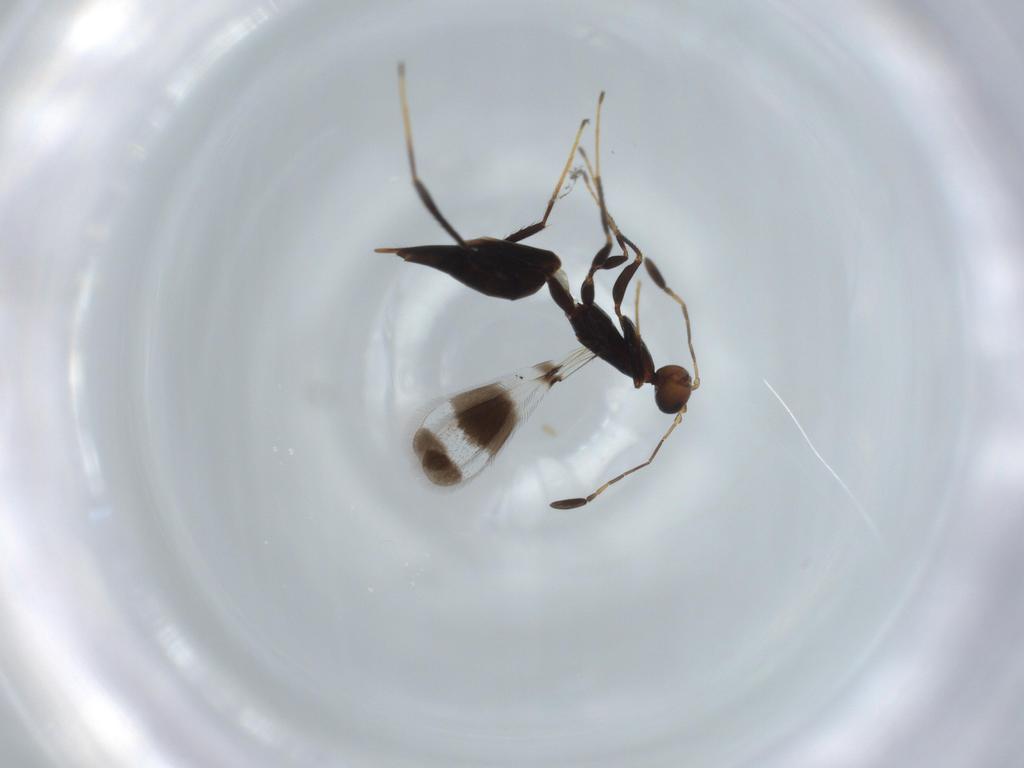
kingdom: Animalia
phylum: Arthropoda
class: Insecta
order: Hymenoptera
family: Mymaridae
